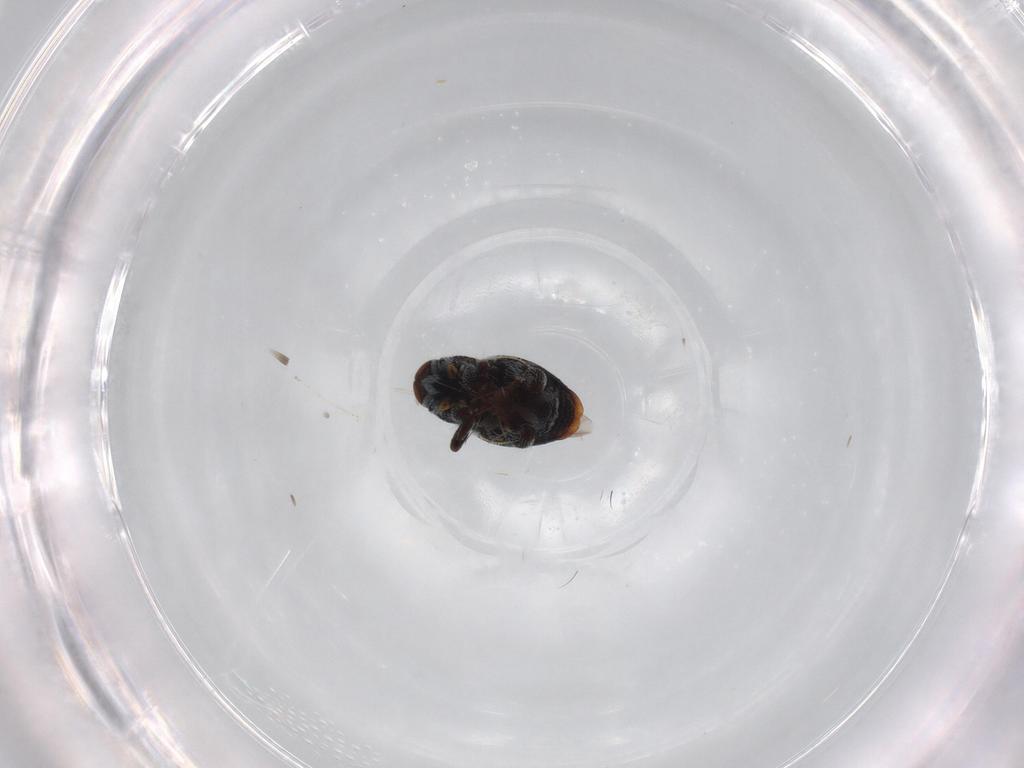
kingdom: Animalia
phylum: Arthropoda
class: Insecta
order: Coleoptera
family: Curculionidae
